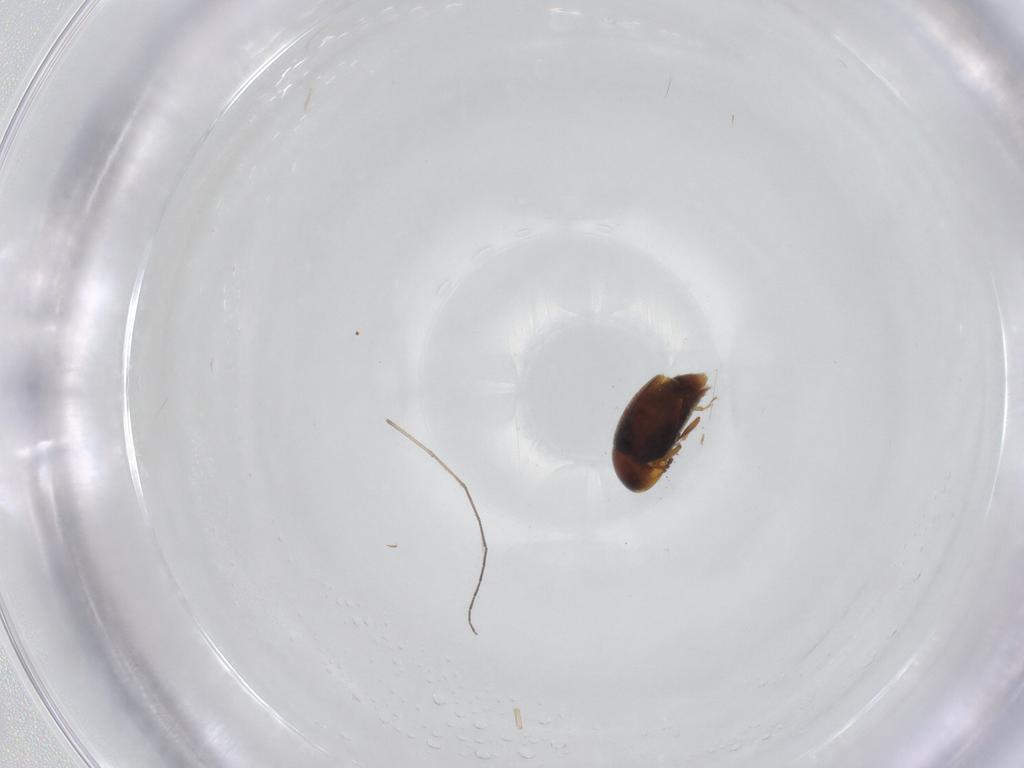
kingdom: Animalia
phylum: Arthropoda
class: Insecta
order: Coleoptera
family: Corylophidae
